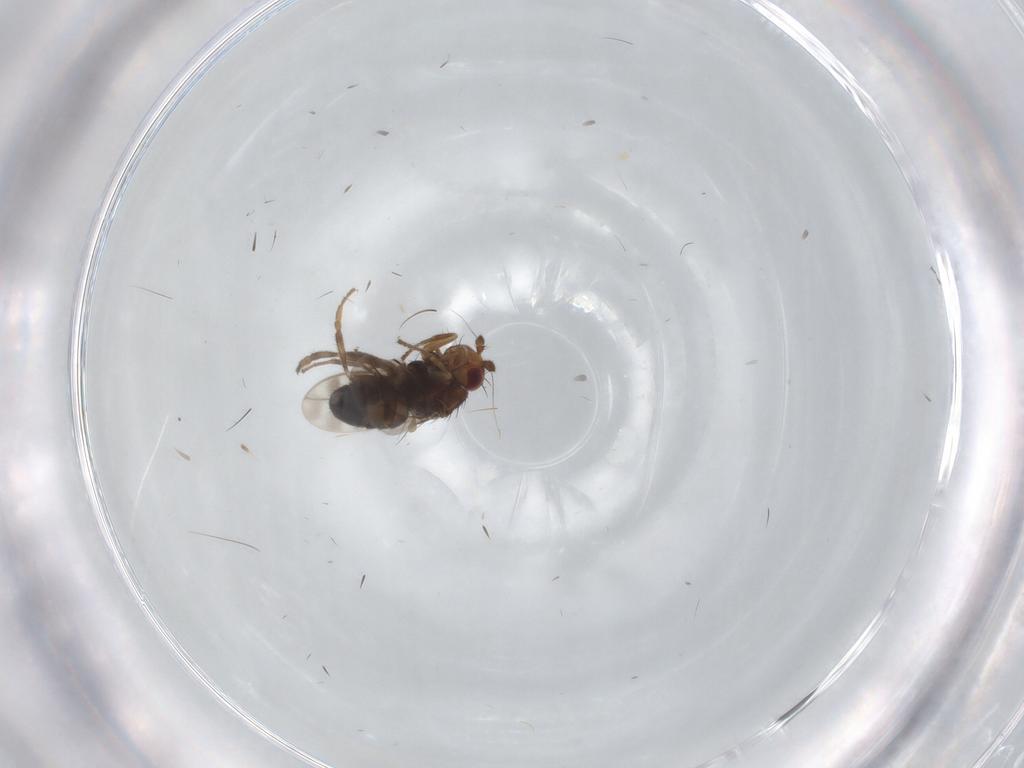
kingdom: Animalia
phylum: Arthropoda
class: Insecta
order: Diptera
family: Sphaeroceridae
